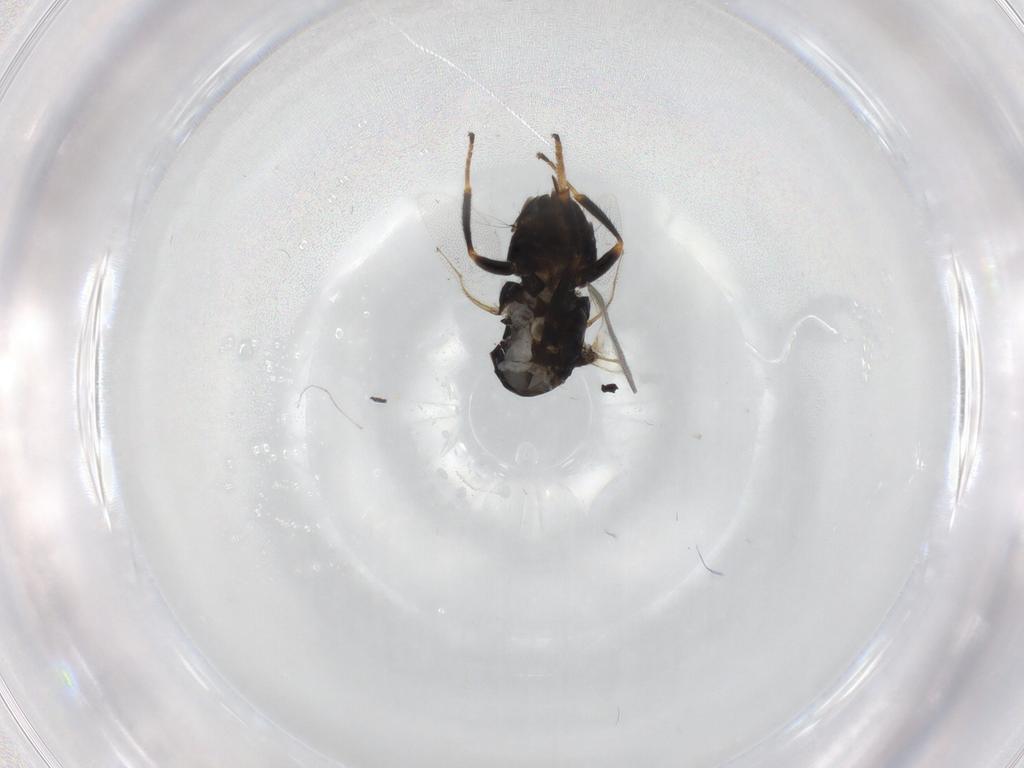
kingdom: Animalia
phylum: Arthropoda
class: Insecta
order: Hymenoptera
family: Encyrtidae
